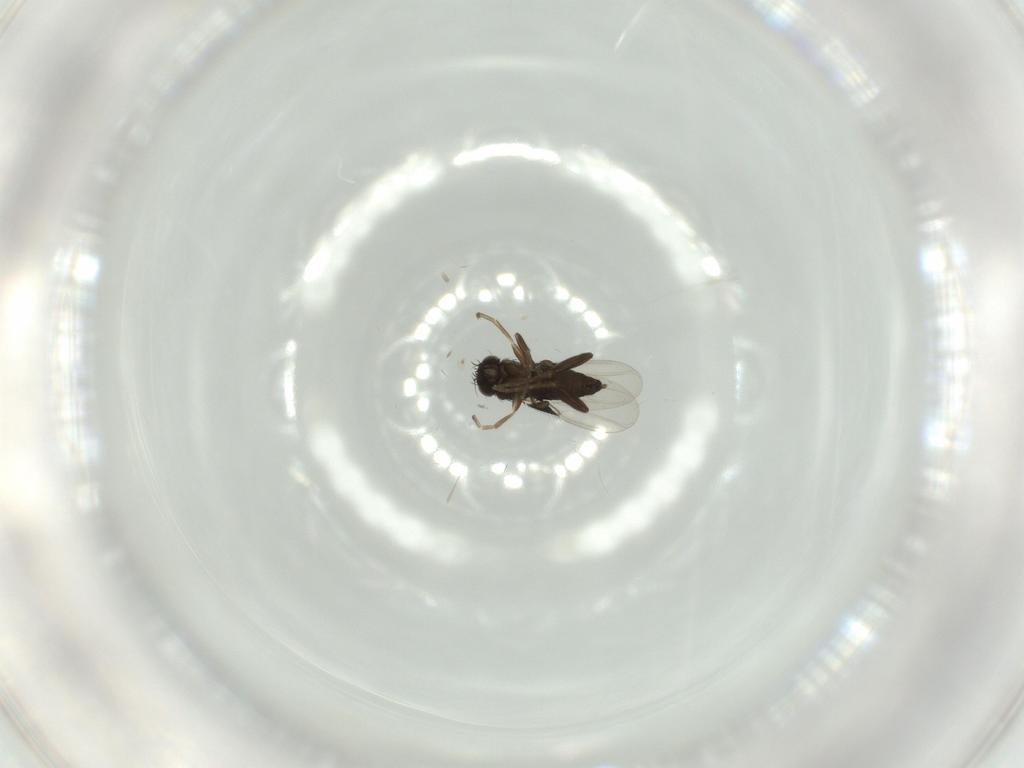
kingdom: Animalia
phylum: Arthropoda
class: Insecta
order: Diptera
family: Phoridae
